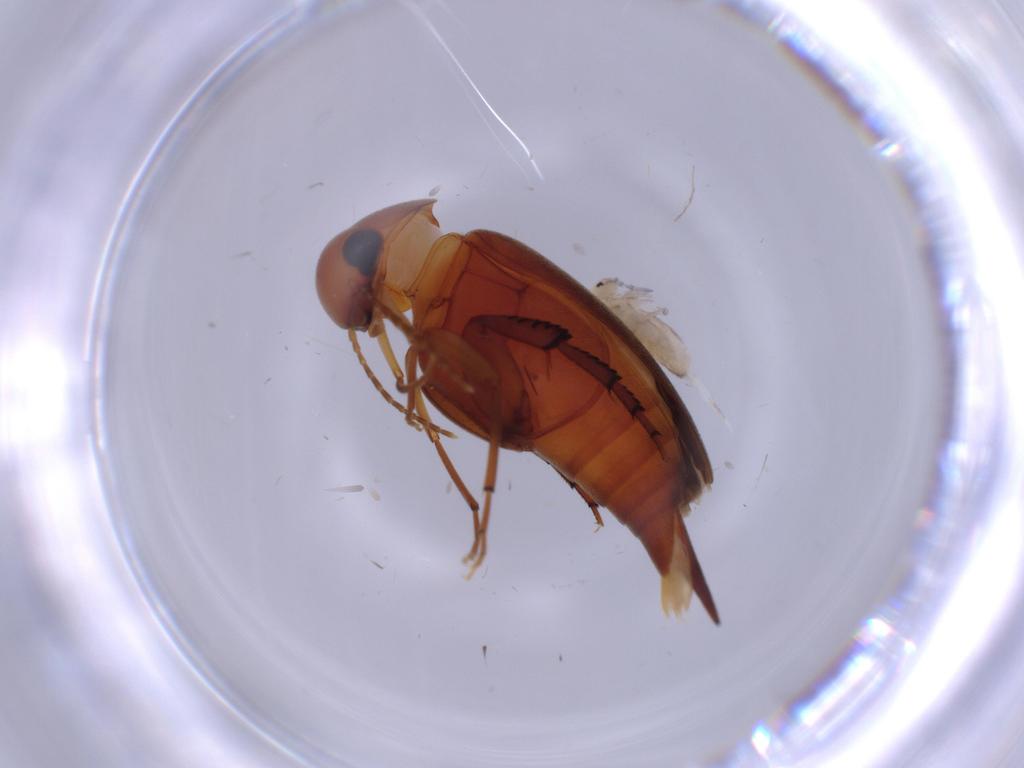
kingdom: Animalia
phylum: Arthropoda
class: Insecta
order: Coleoptera
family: Mordellidae
